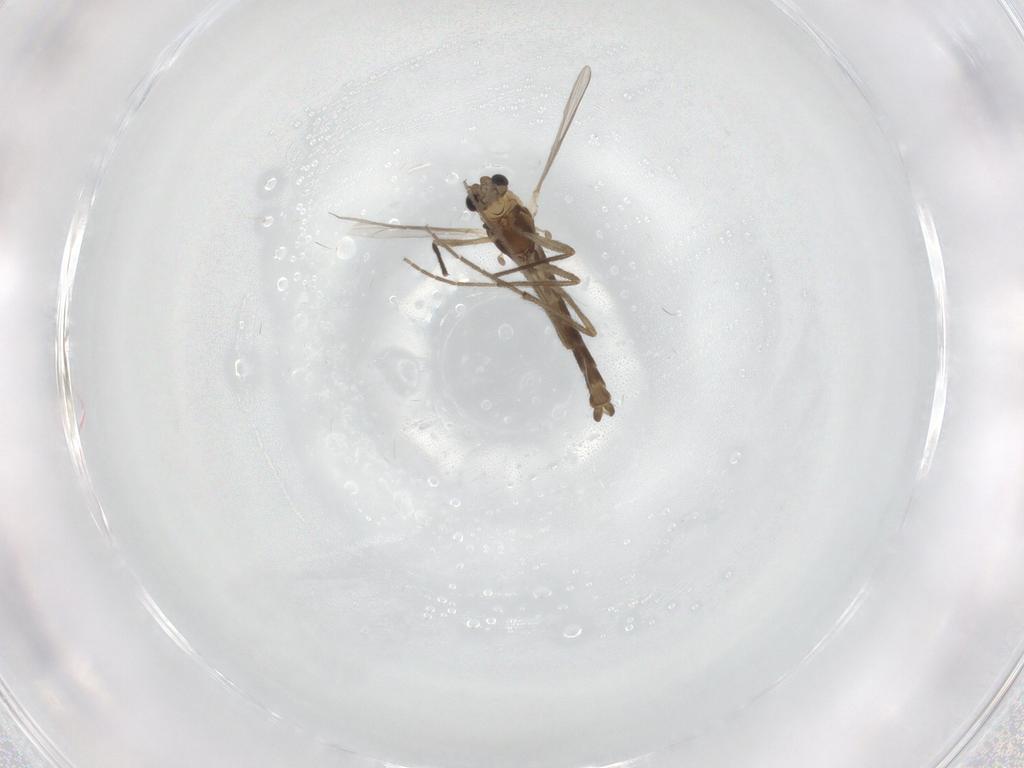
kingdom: Animalia
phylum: Arthropoda
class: Insecta
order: Diptera
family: Chironomidae
